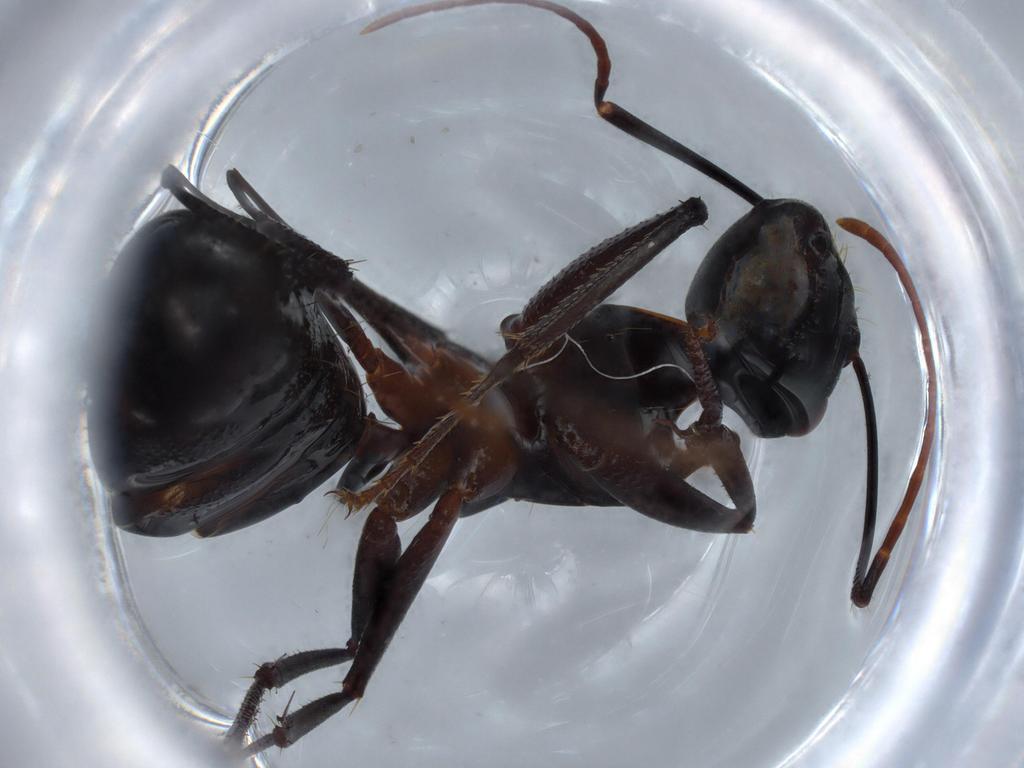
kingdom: Animalia
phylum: Arthropoda
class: Insecta
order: Hymenoptera
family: Formicidae
